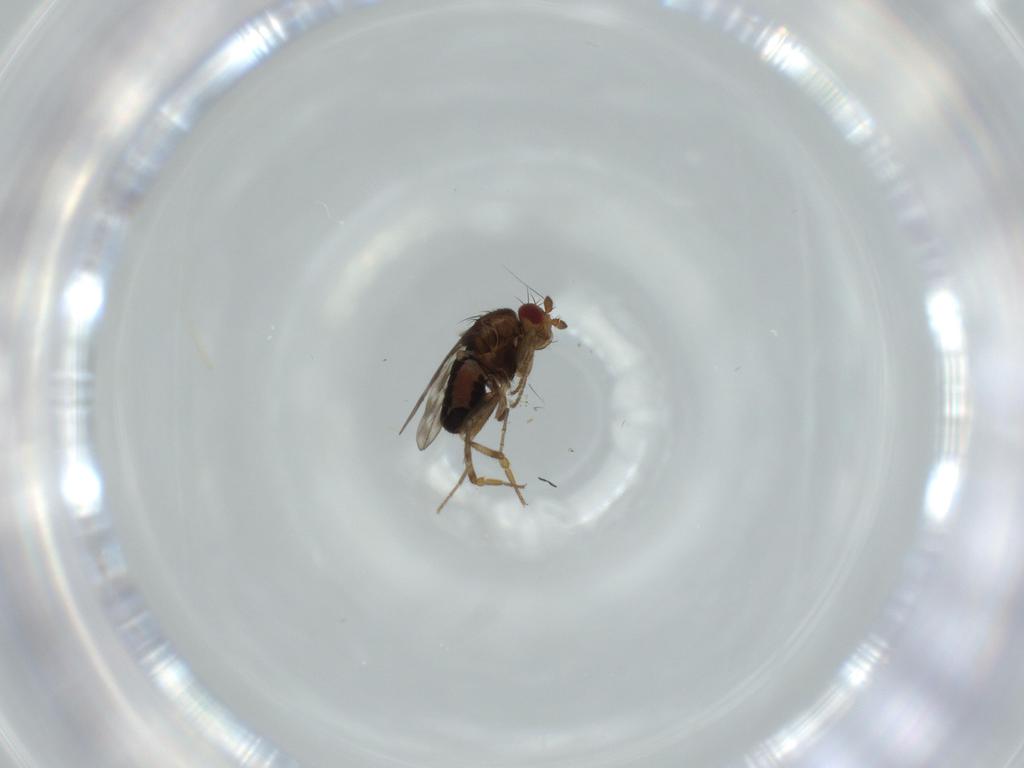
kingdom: Animalia
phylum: Arthropoda
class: Insecta
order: Diptera
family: Sphaeroceridae
